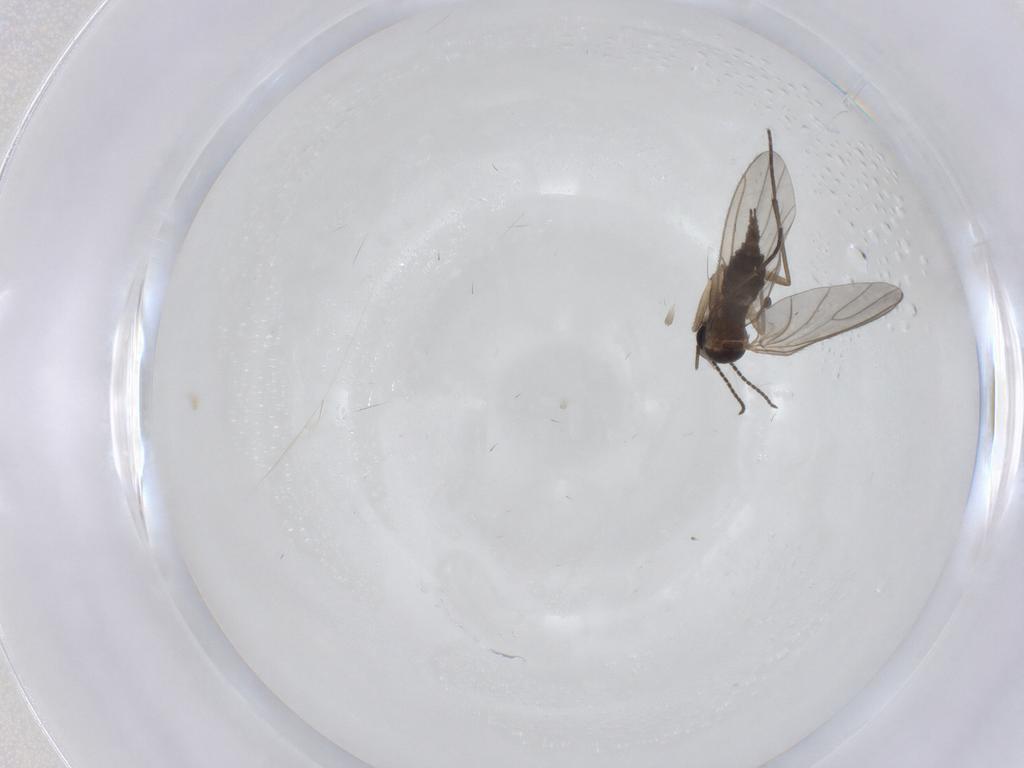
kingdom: Animalia
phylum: Arthropoda
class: Insecta
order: Diptera
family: Sciaridae
